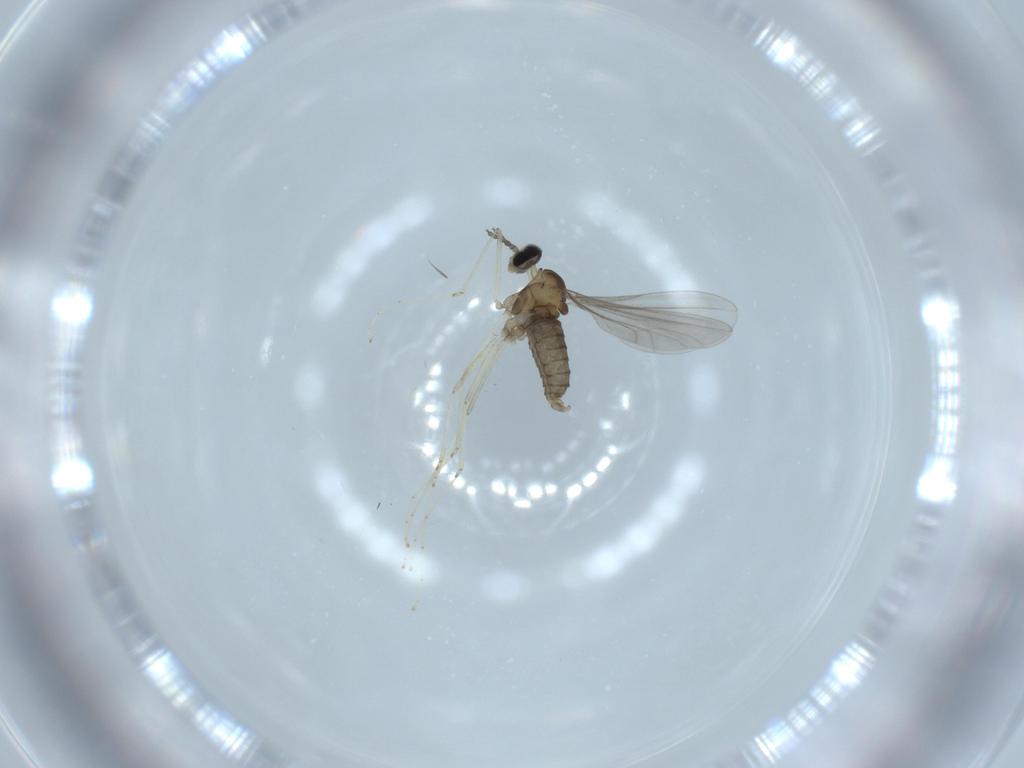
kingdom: Animalia
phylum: Arthropoda
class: Insecta
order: Diptera
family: Cecidomyiidae
